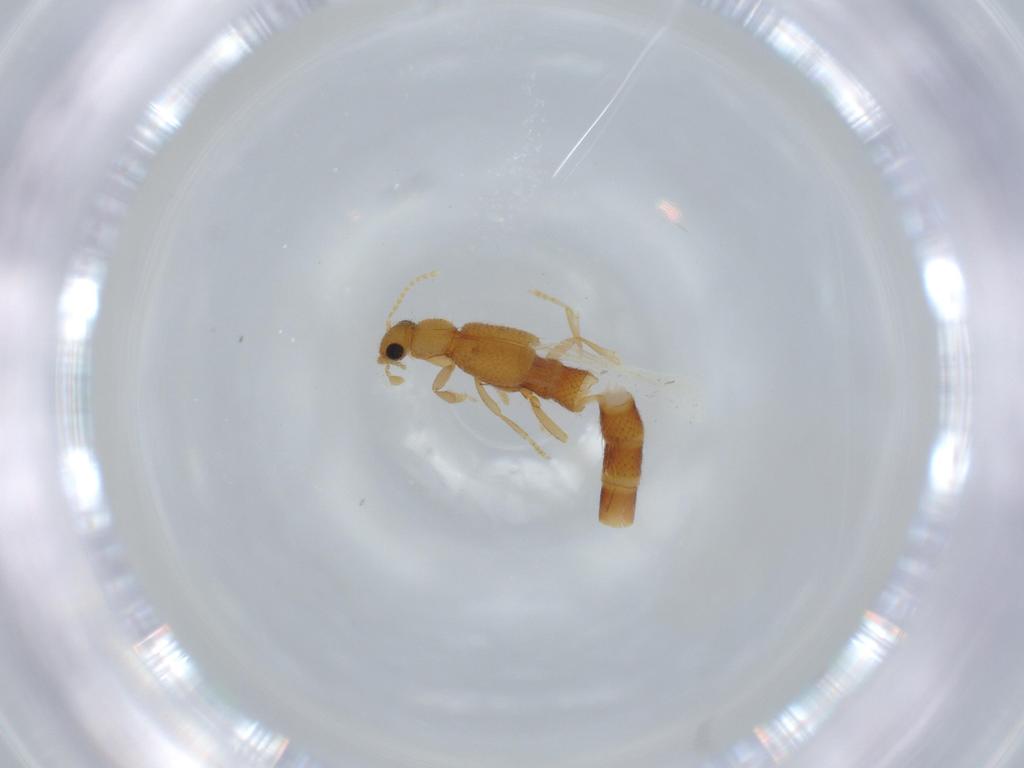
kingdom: Animalia
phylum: Arthropoda
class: Insecta
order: Coleoptera
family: Staphylinidae
